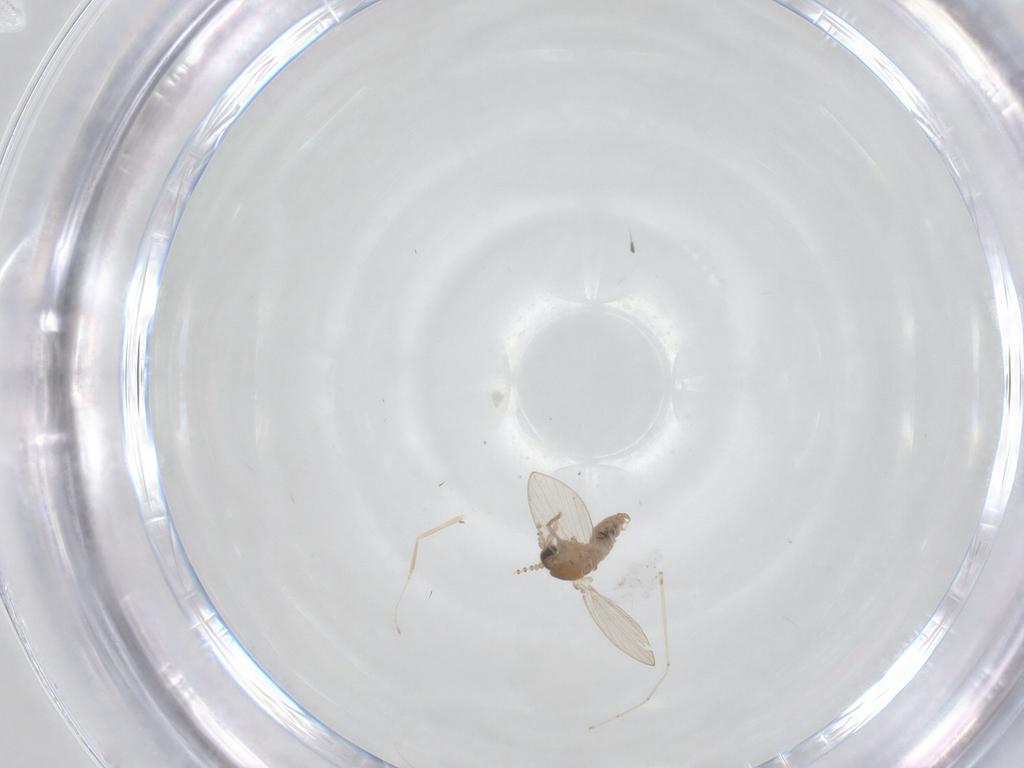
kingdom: Animalia
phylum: Arthropoda
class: Insecta
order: Diptera
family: Psychodidae
